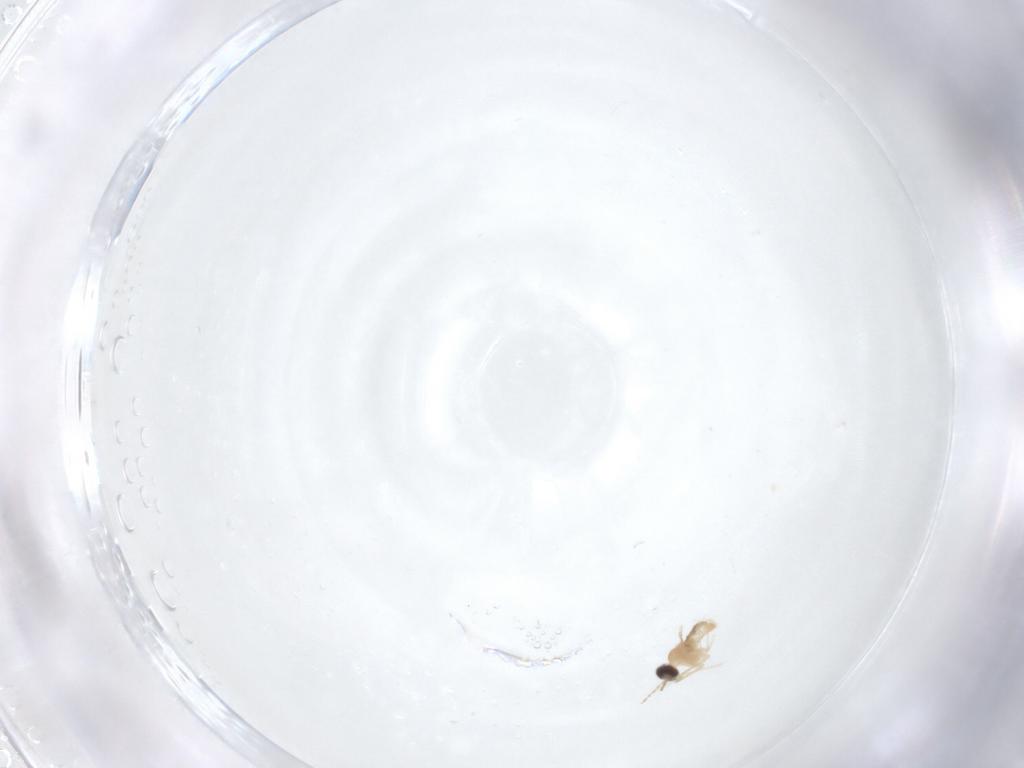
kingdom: Animalia
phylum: Arthropoda
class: Insecta
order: Diptera
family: Cecidomyiidae
